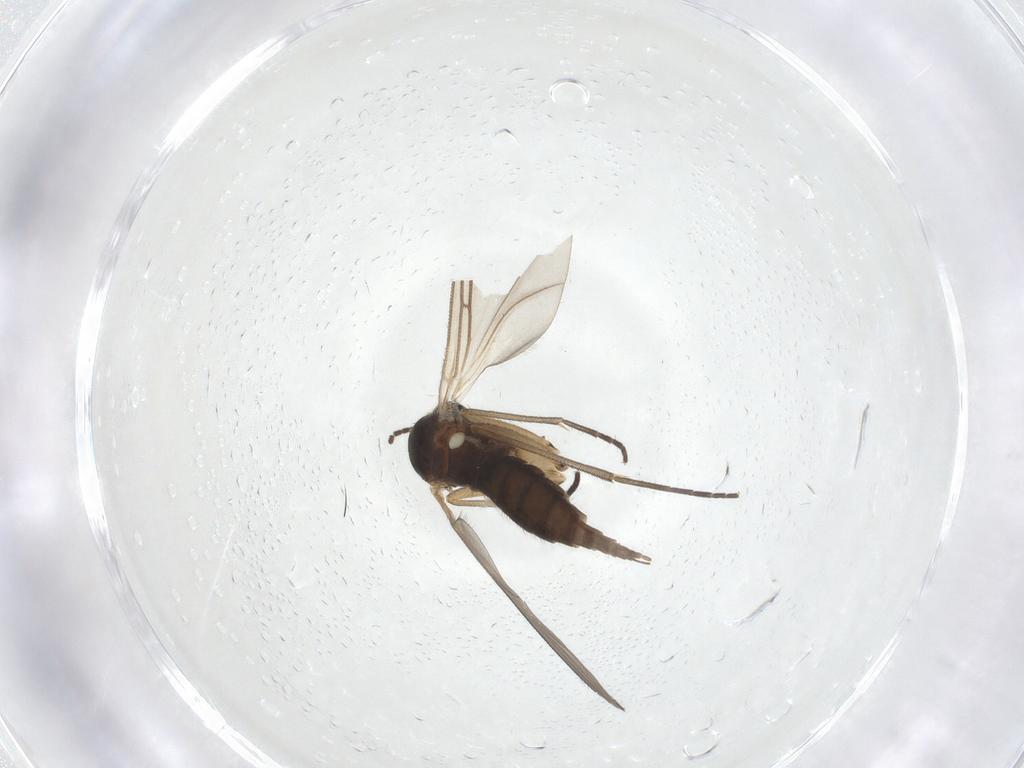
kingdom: Animalia
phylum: Arthropoda
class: Insecta
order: Diptera
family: Sciaridae
